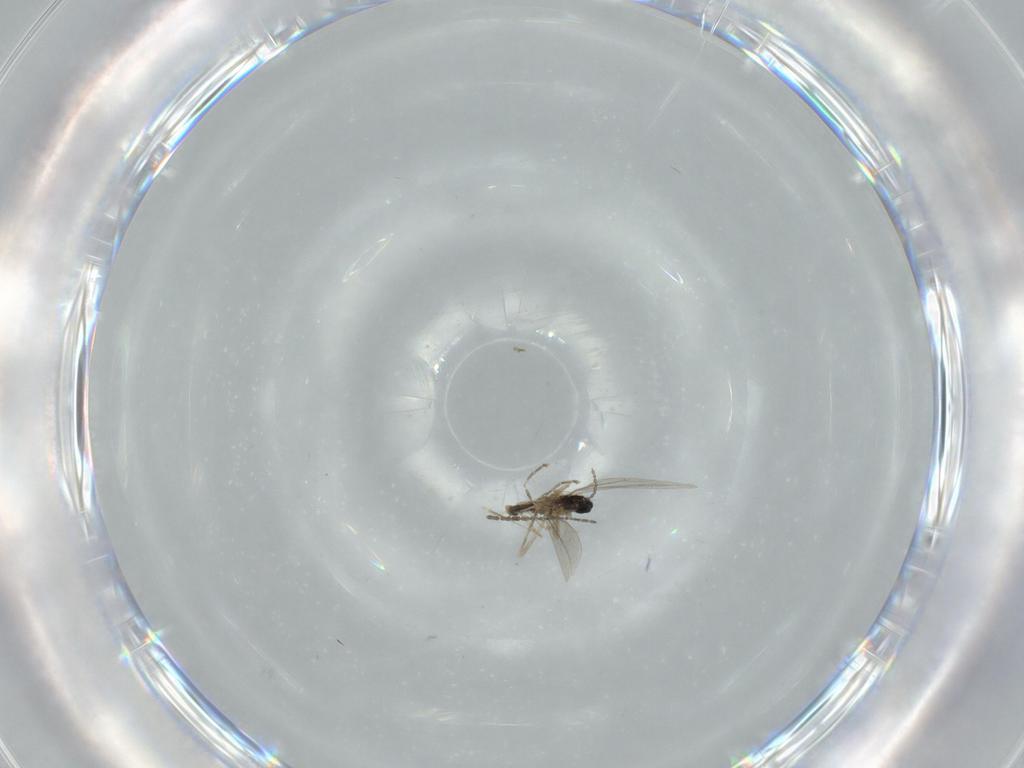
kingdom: Animalia
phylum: Arthropoda
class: Insecta
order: Diptera
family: Cecidomyiidae
